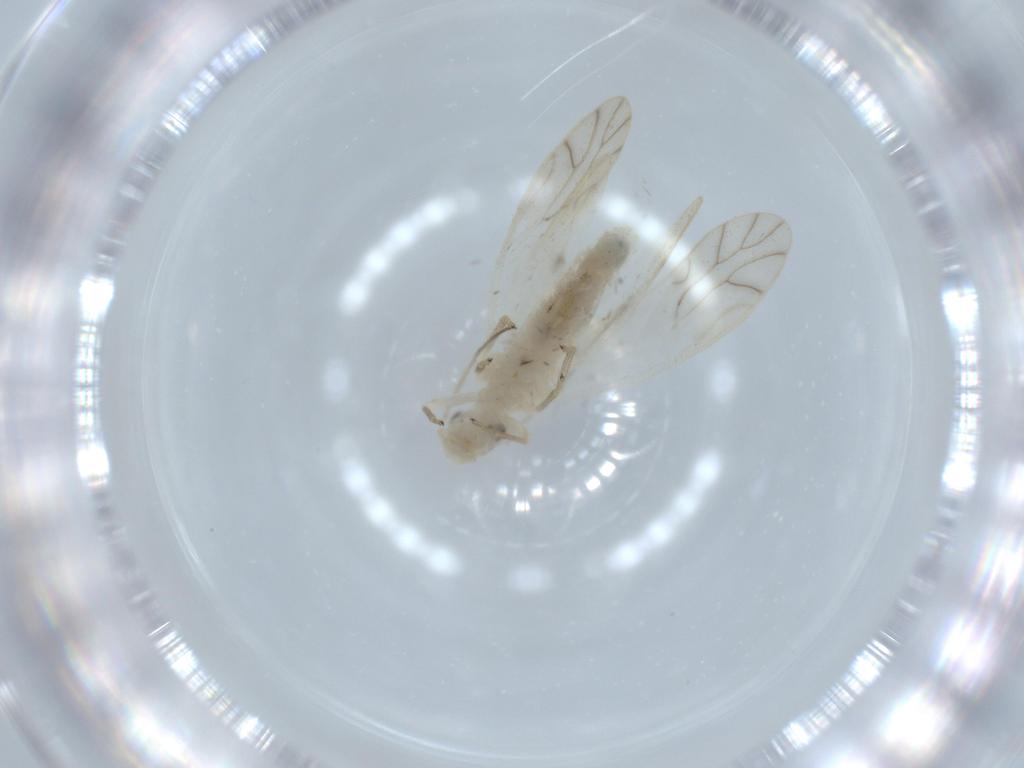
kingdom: Animalia
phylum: Arthropoda
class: Insecta
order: Psocodea
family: Caeciliusidae
